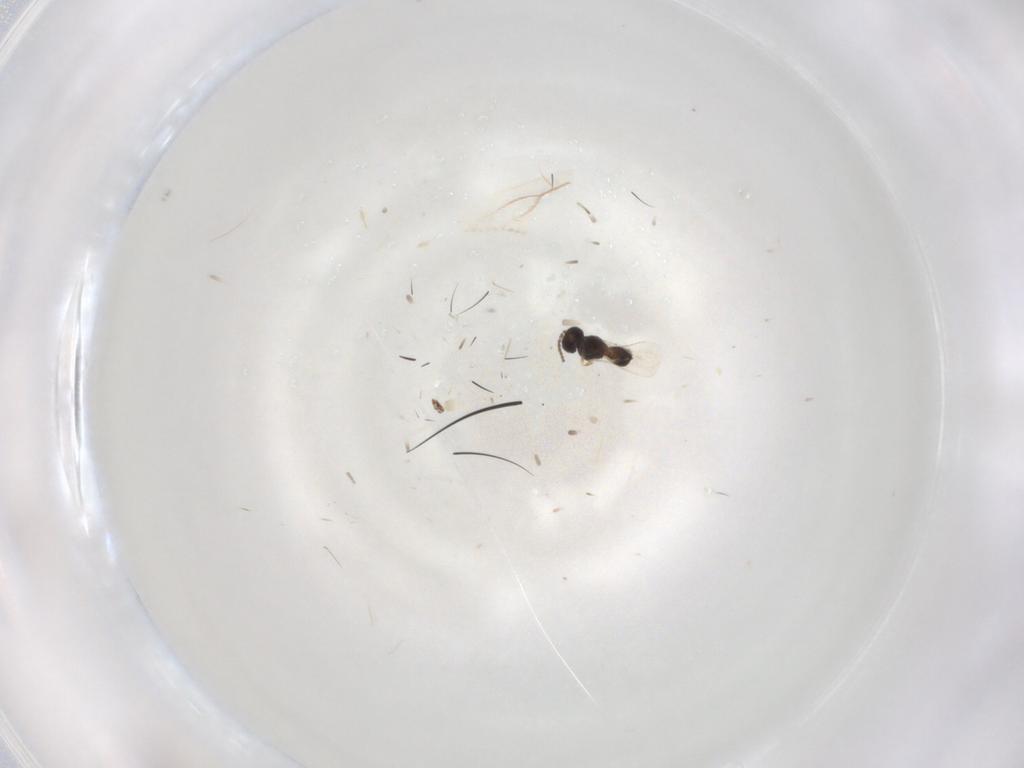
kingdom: Animalia
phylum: Arthropoda
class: Insecta
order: Hymenoptera
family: Formicidae
